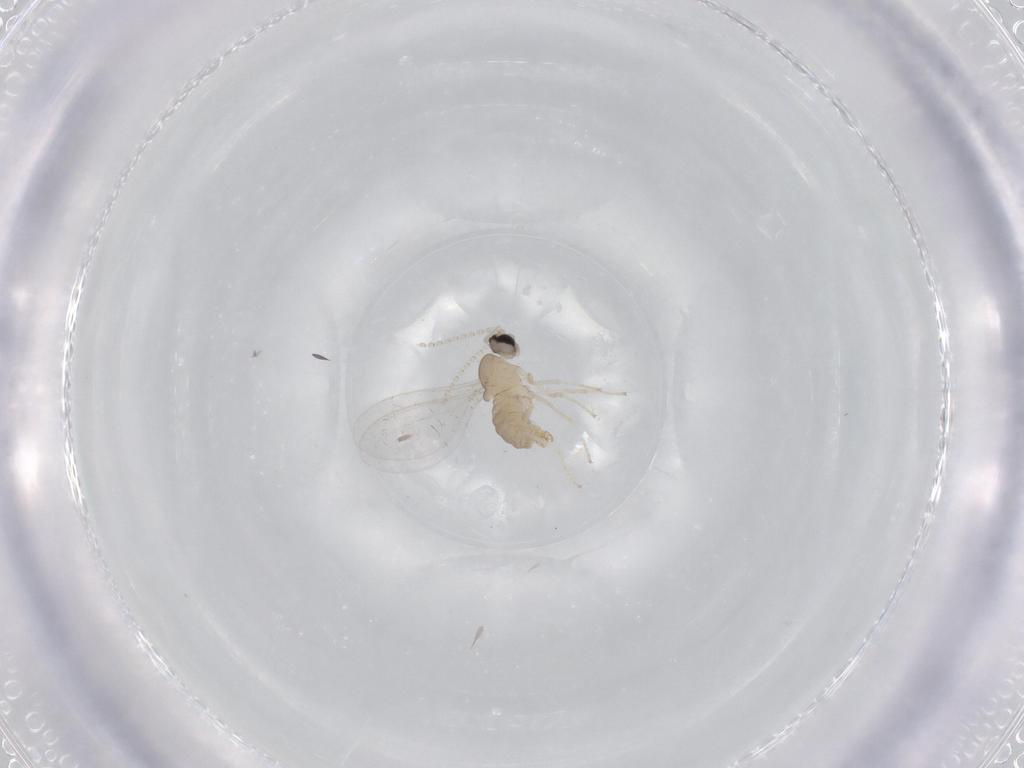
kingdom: Animalia
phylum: Arthropoda
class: Insecta
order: Diptera
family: Cecidomyiidae
